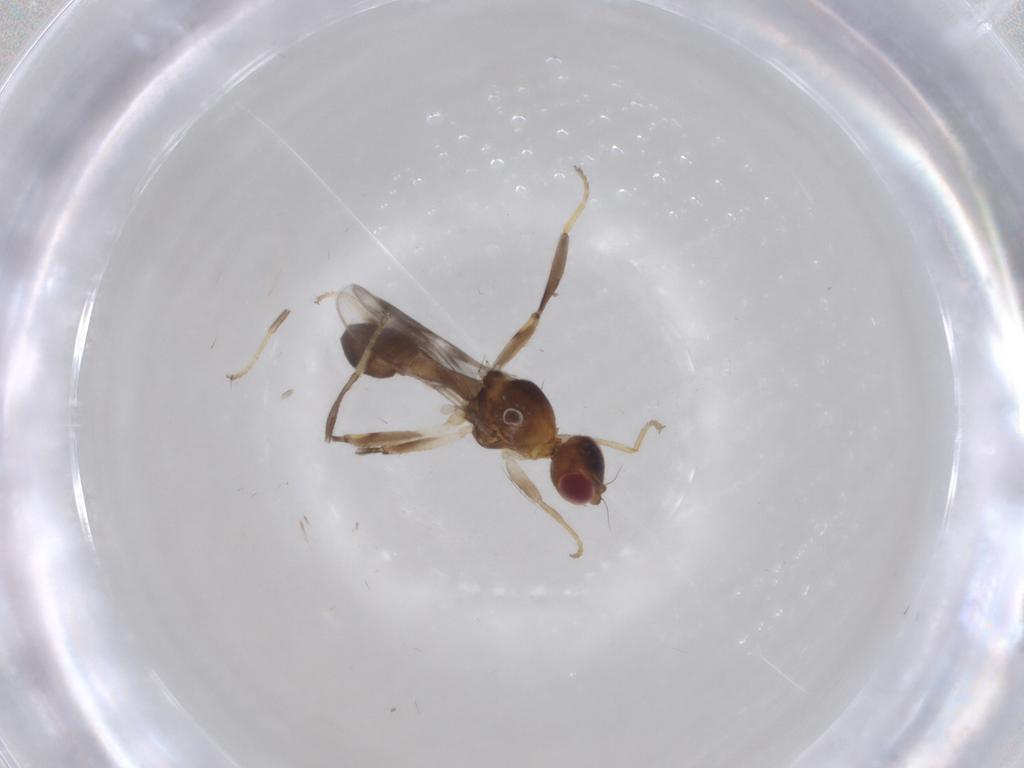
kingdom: Animalia
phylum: Arthropoda
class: Insecta
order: Diptera
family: Chloropidae
